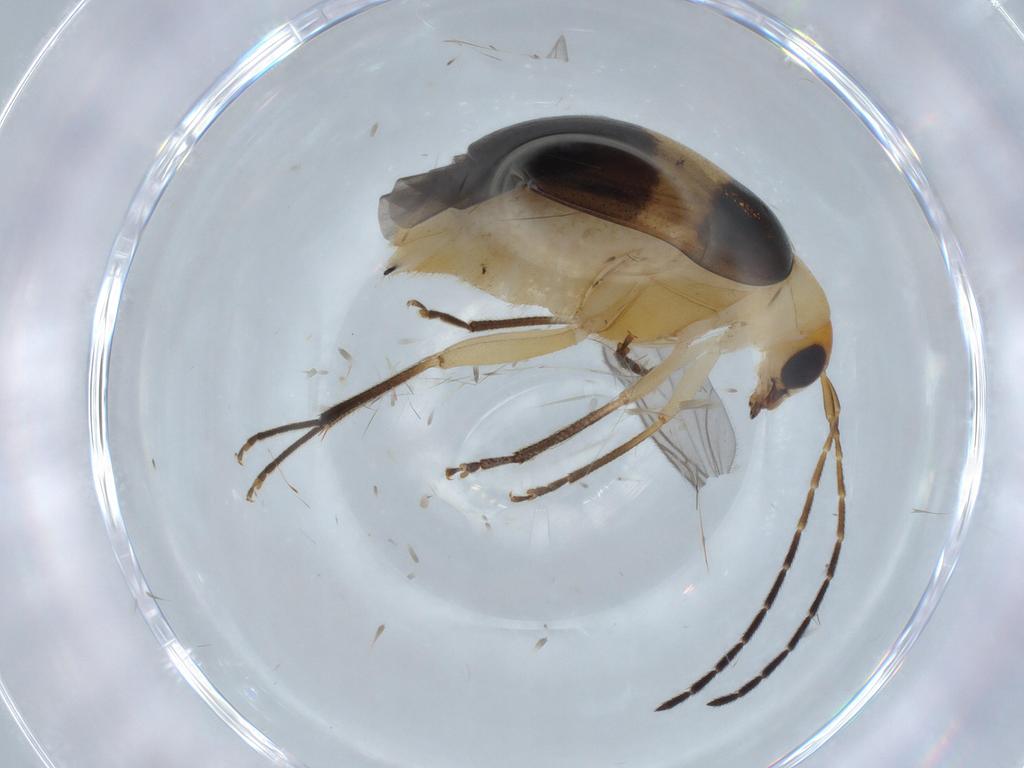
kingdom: Animalia
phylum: Arthropoda
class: Insecta
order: Coleoptera
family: Chrysomelidae
